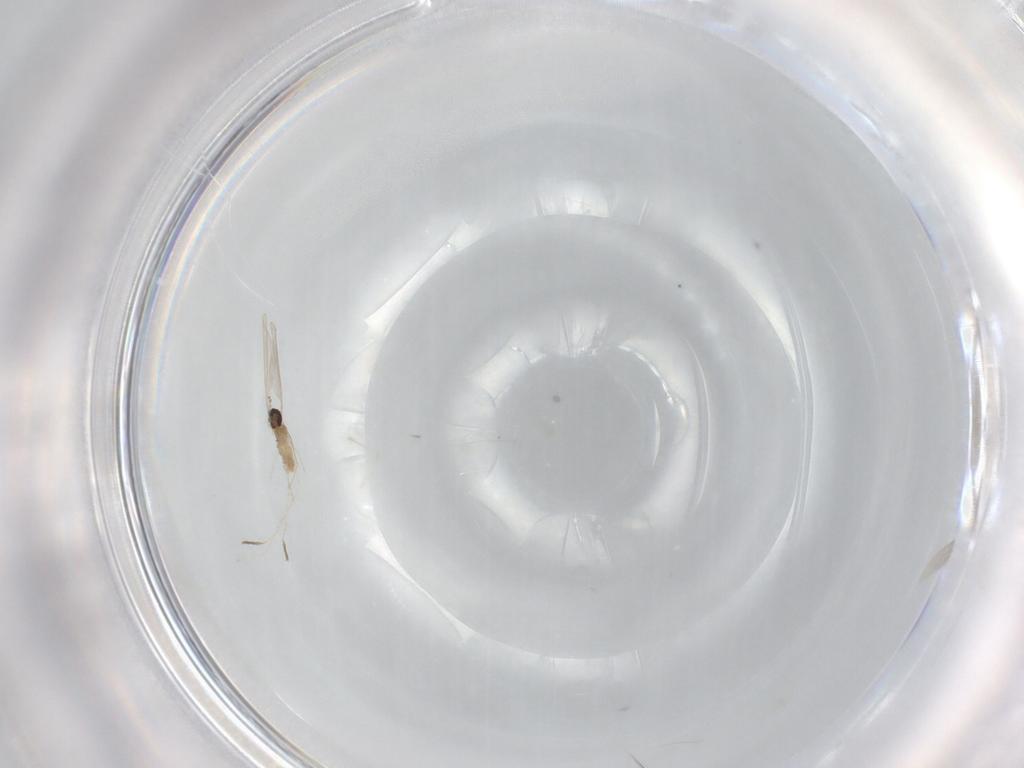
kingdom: Animalia
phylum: Arthropoda
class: Insecta
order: Diptera
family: Cecidomyiidae
